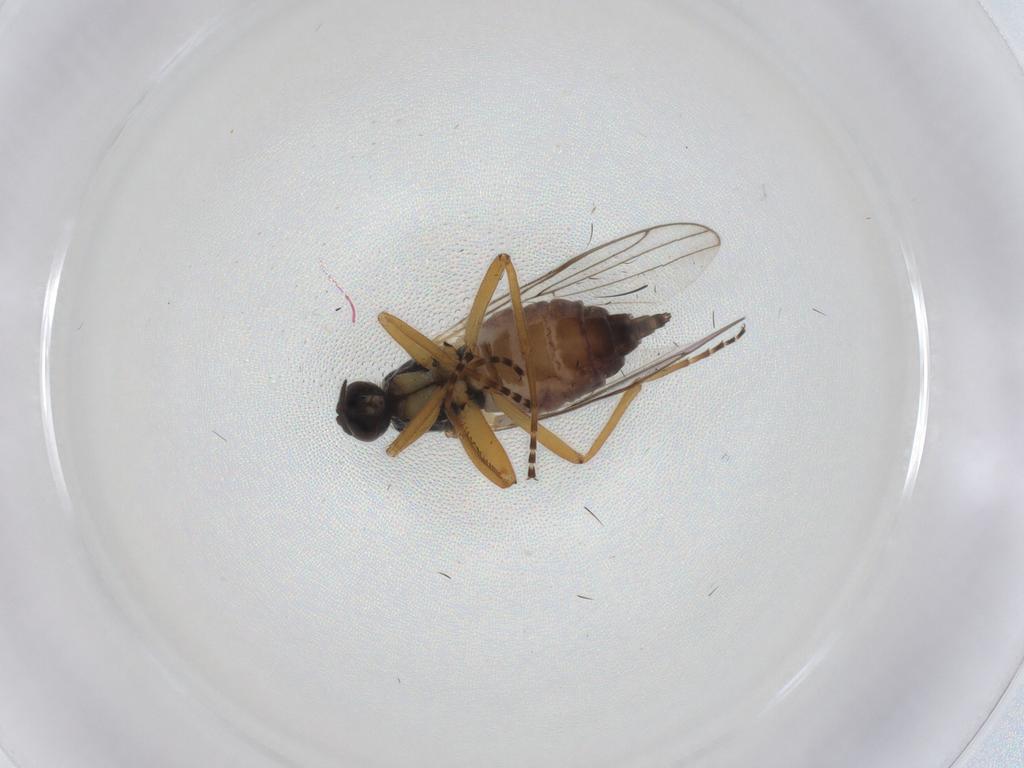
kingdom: Animalia
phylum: Arthropoda
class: Insecta
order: Diptera
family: Hybotidae
